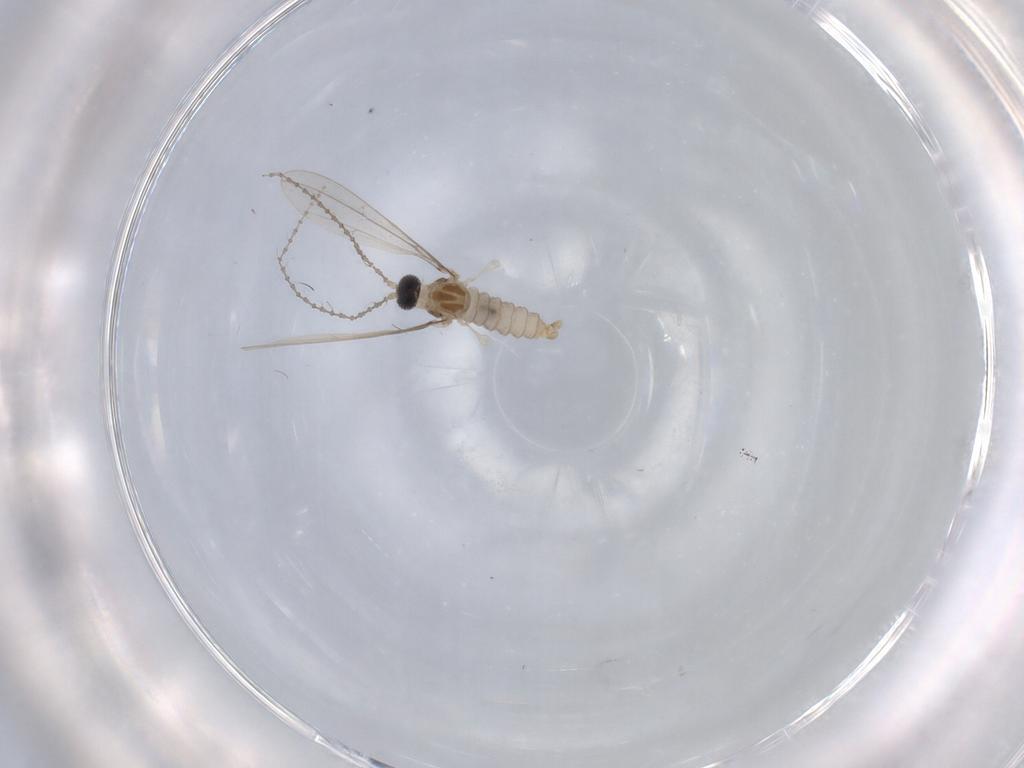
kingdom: Animalia
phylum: Arthropoda
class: Insecta
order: Diptera
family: Cecidomyiidae
